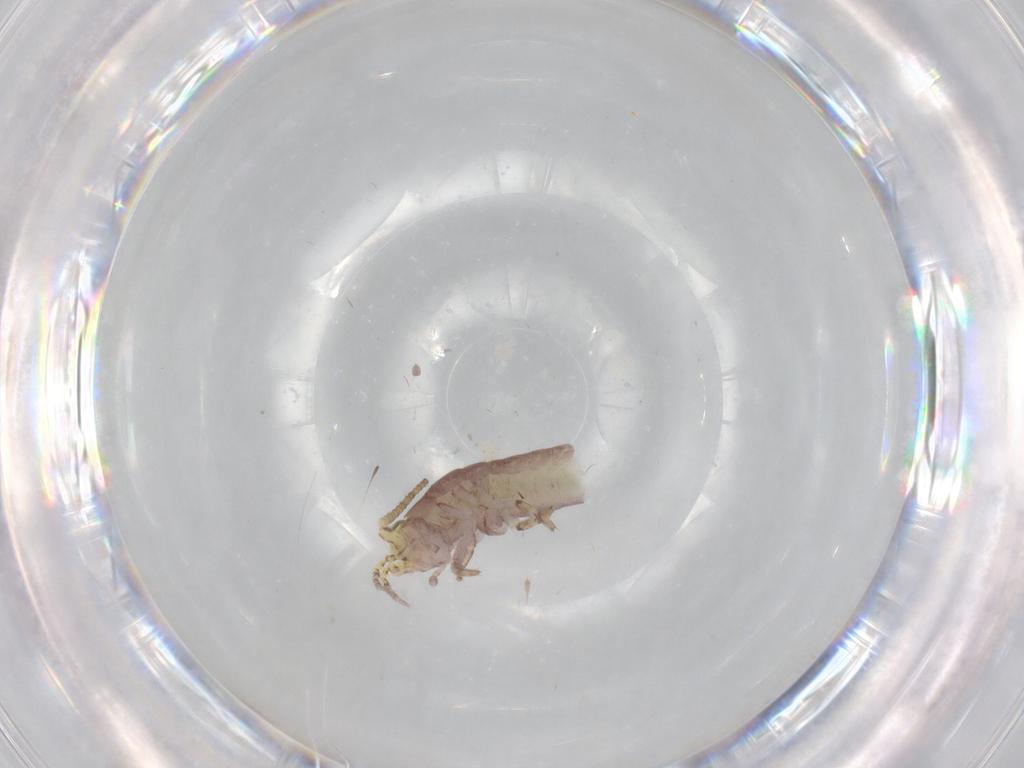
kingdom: Animalia
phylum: Arthropoda
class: Insecta
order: Archaeognatha
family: Machilidae
